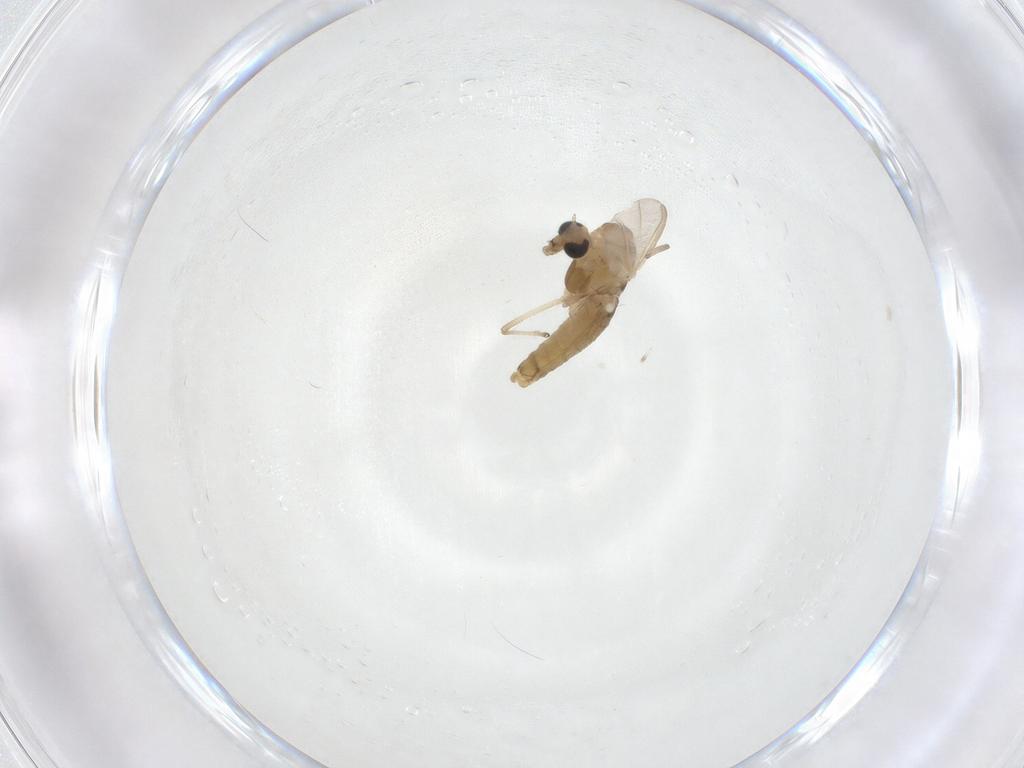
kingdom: Animalia
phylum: Arthropoda
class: Insecta
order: Diptera
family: Chironomidae
